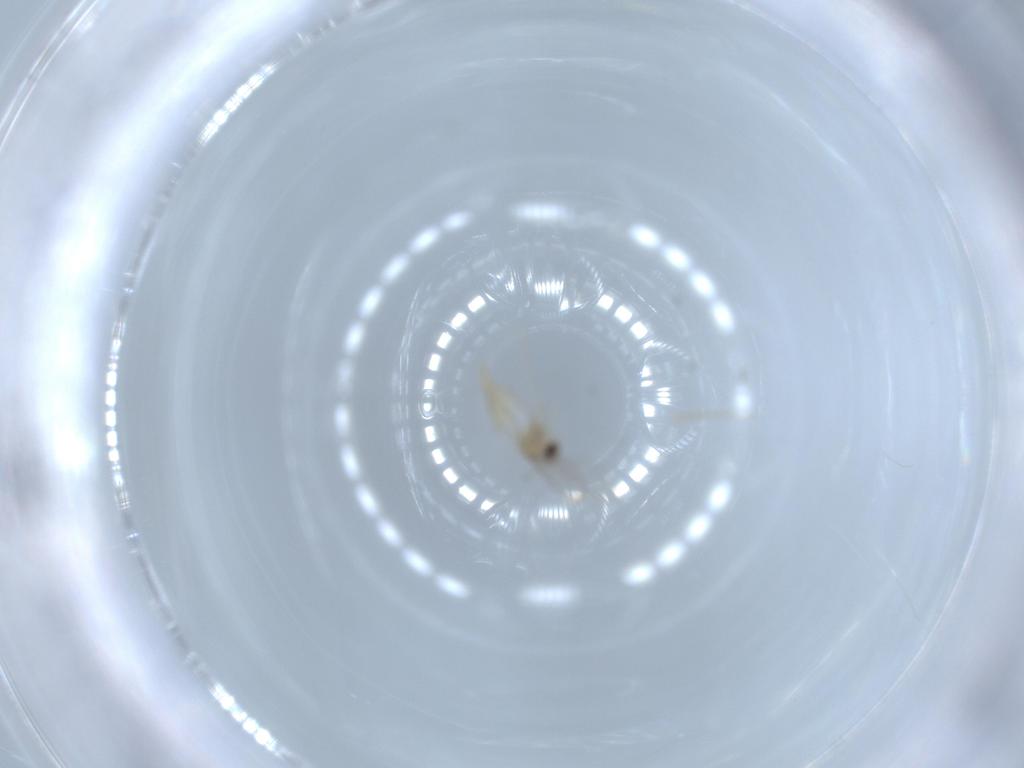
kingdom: Animalia
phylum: Arthropoda
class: Insecta
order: Diptera
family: Cecidomyiidae
